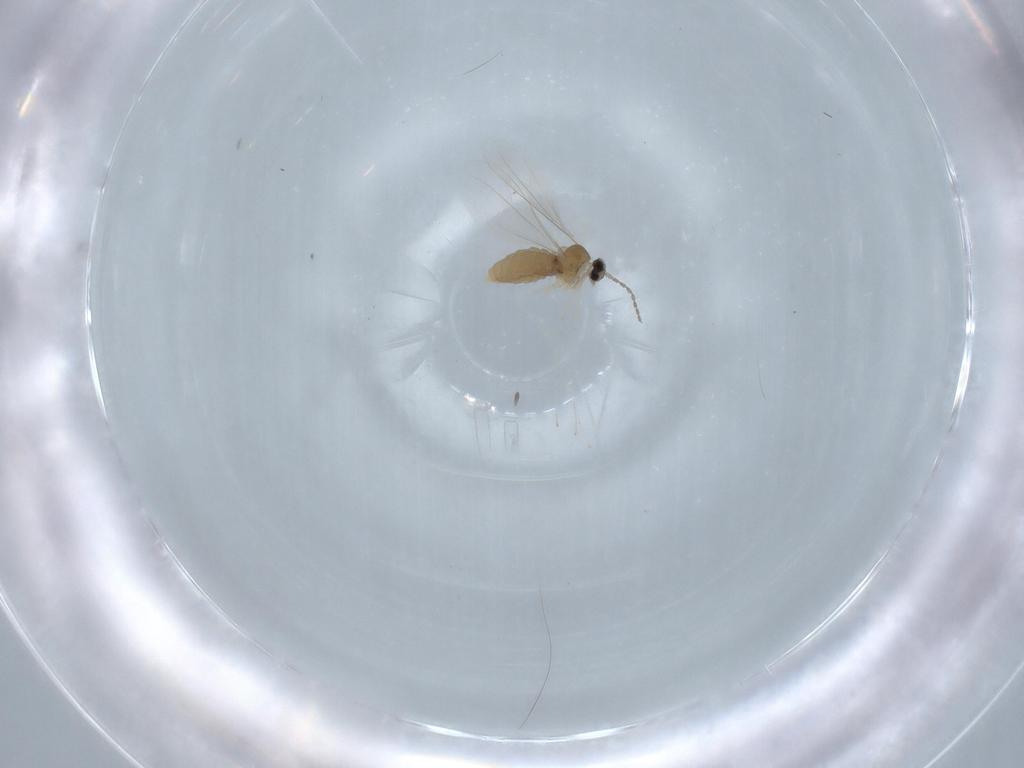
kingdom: Animalia
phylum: Arthropoda
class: Insecta
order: Diptera
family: Cecidomyiidae
